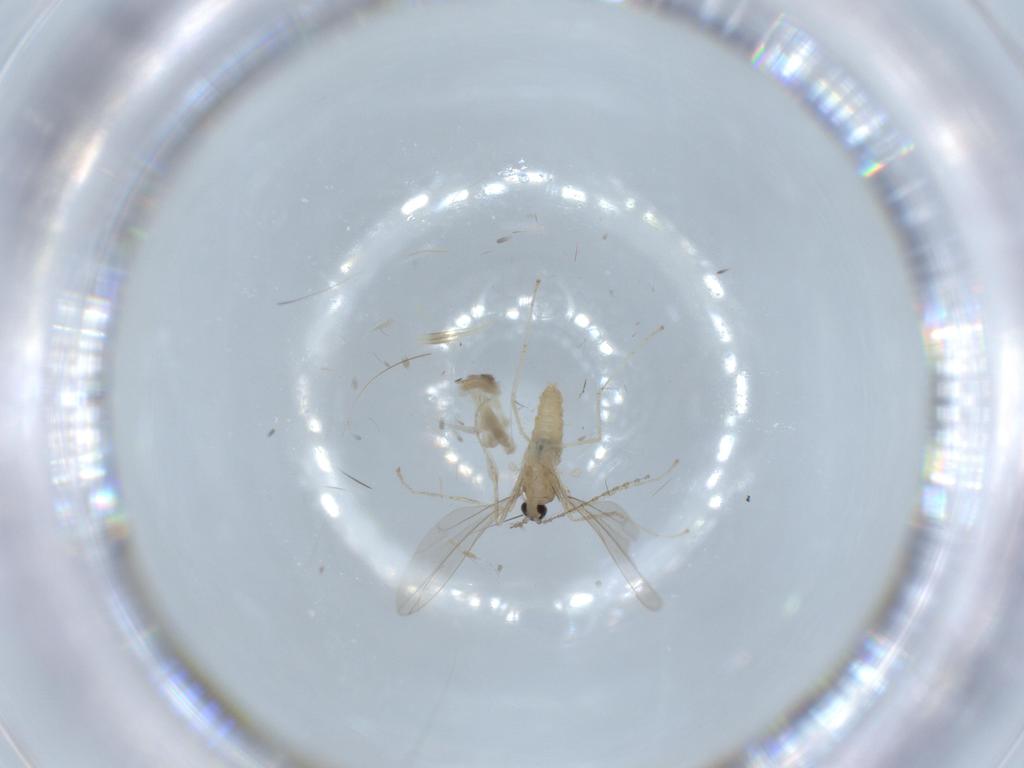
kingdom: Animalia
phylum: Arthropoda
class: Insecta
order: Diptera
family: Cecidomyiidae
